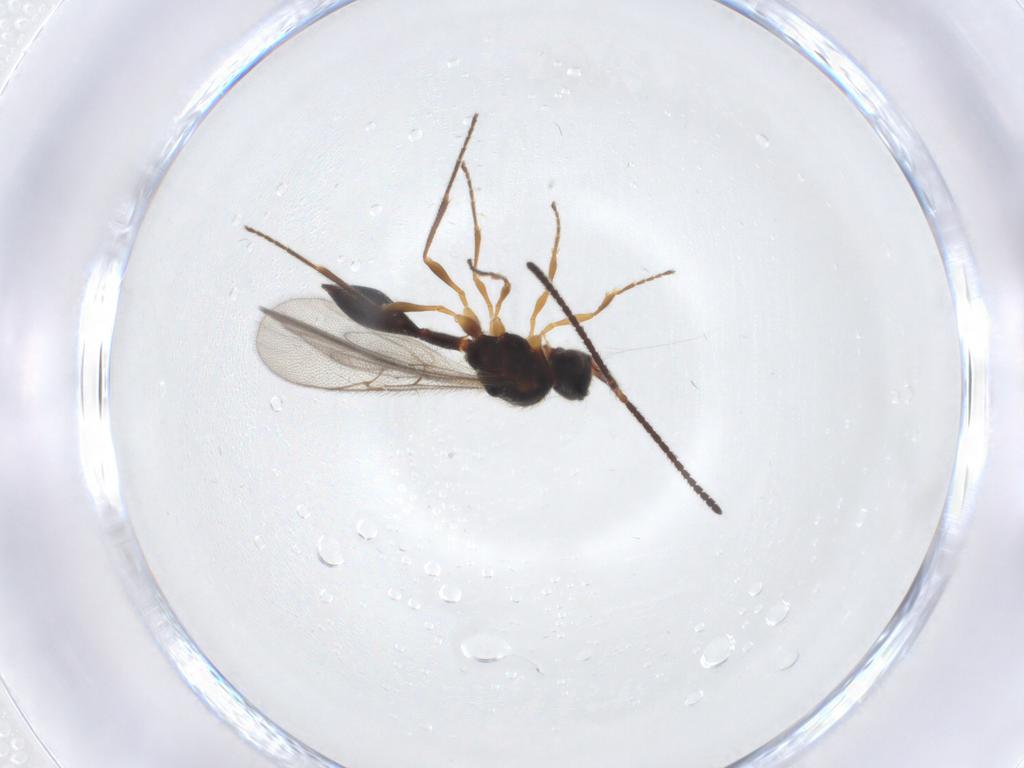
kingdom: Animalia
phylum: Arthropoda
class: Insecta
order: Hymenoptera
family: Diapriidae
